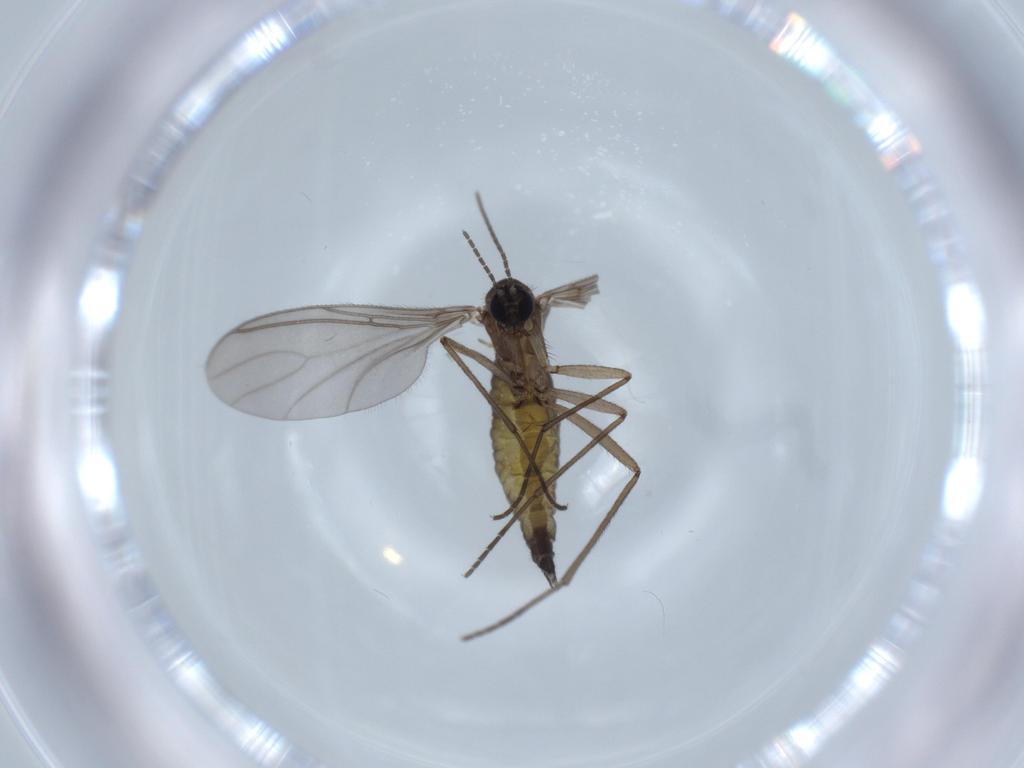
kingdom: Animalia
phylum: Arthropoda
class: Insecta
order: Diptera
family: Sciaridae
